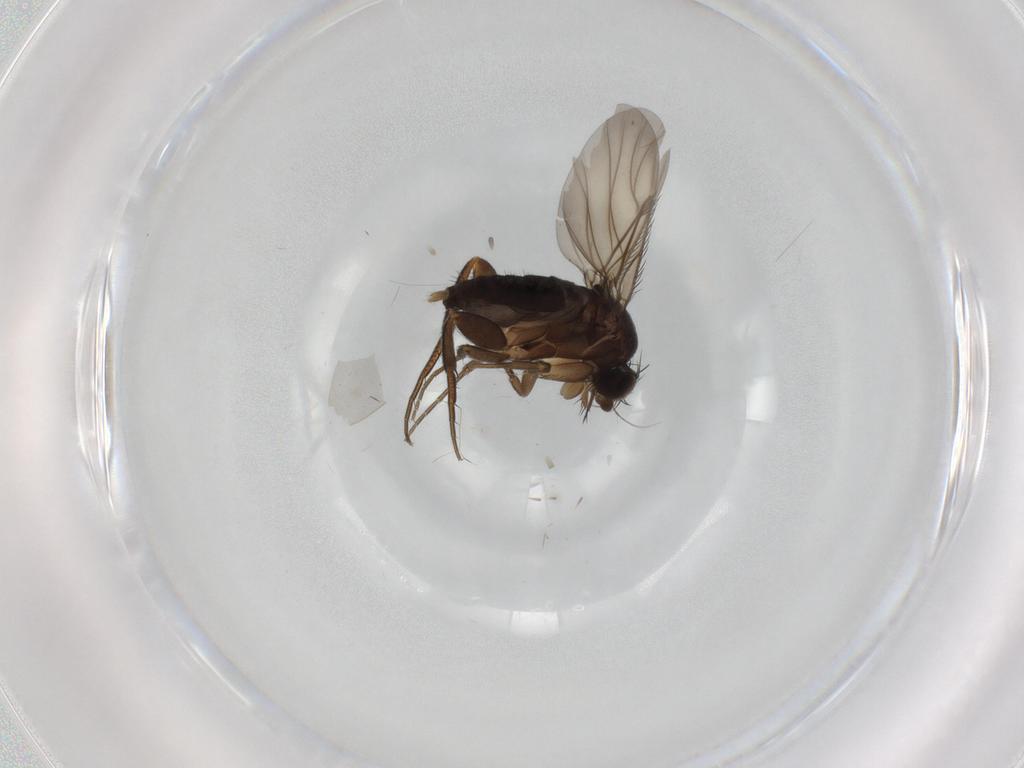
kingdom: Animalia
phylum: Arthropoda
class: Insecta
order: Diptera
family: Phoridae
